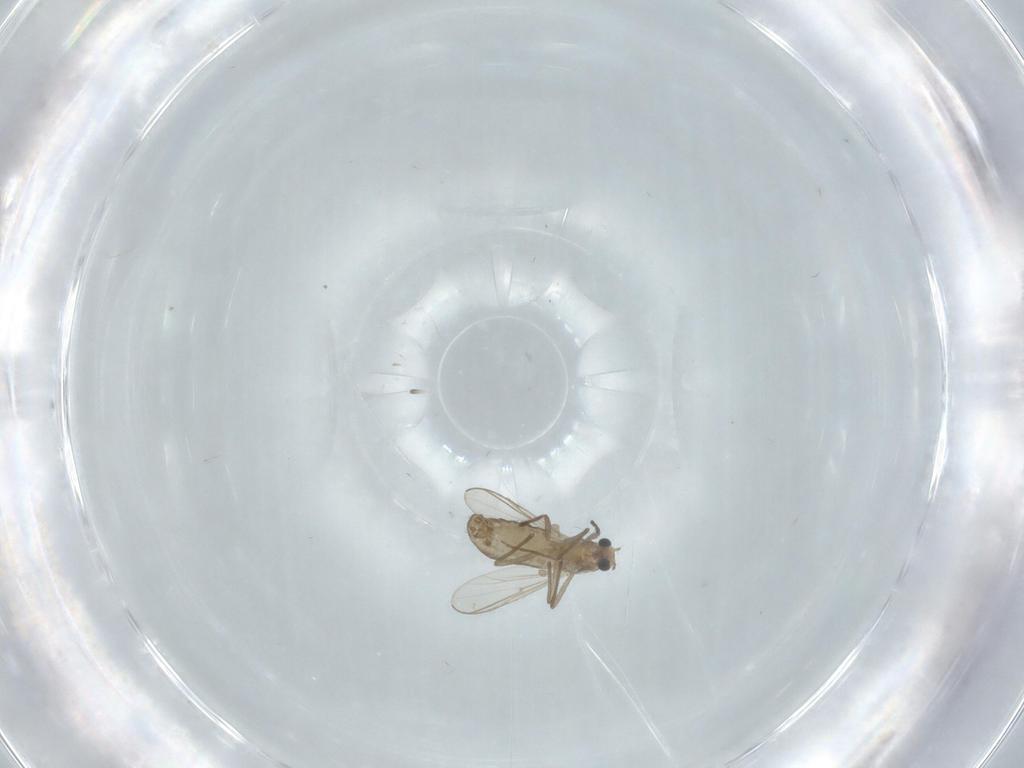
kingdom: Animalia
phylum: Arthropoda
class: Insecta
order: Diptera
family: Chironomidae
